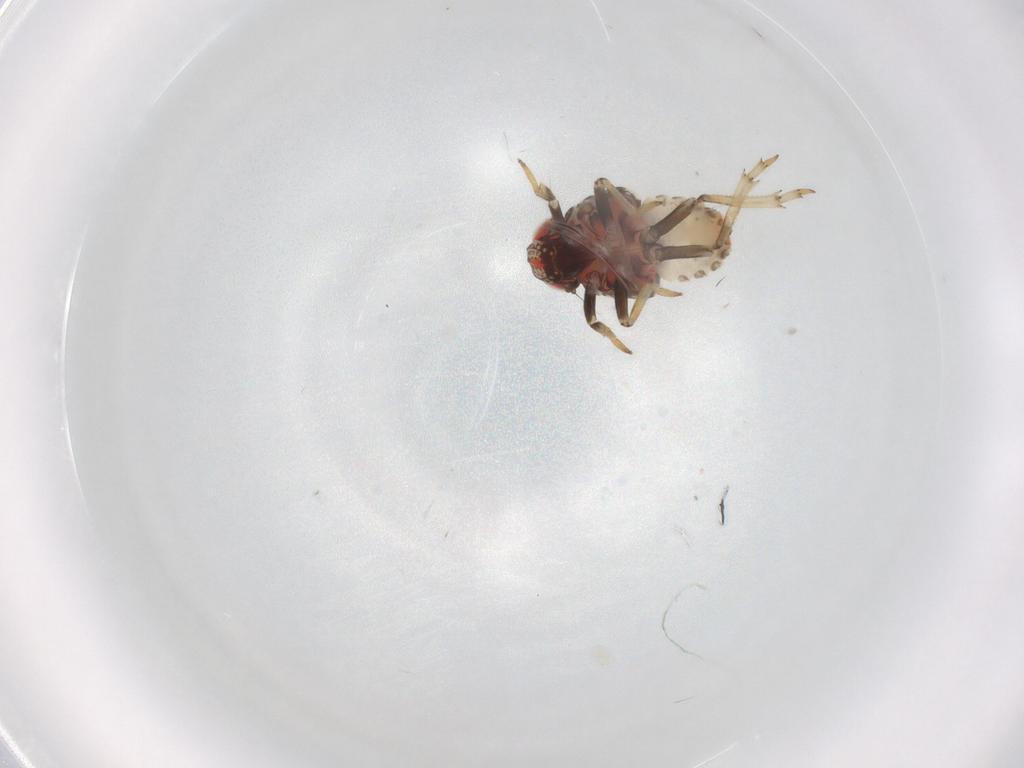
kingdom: Animalia
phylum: Arthropoda
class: Insecta
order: Hemiptera
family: Issidae
